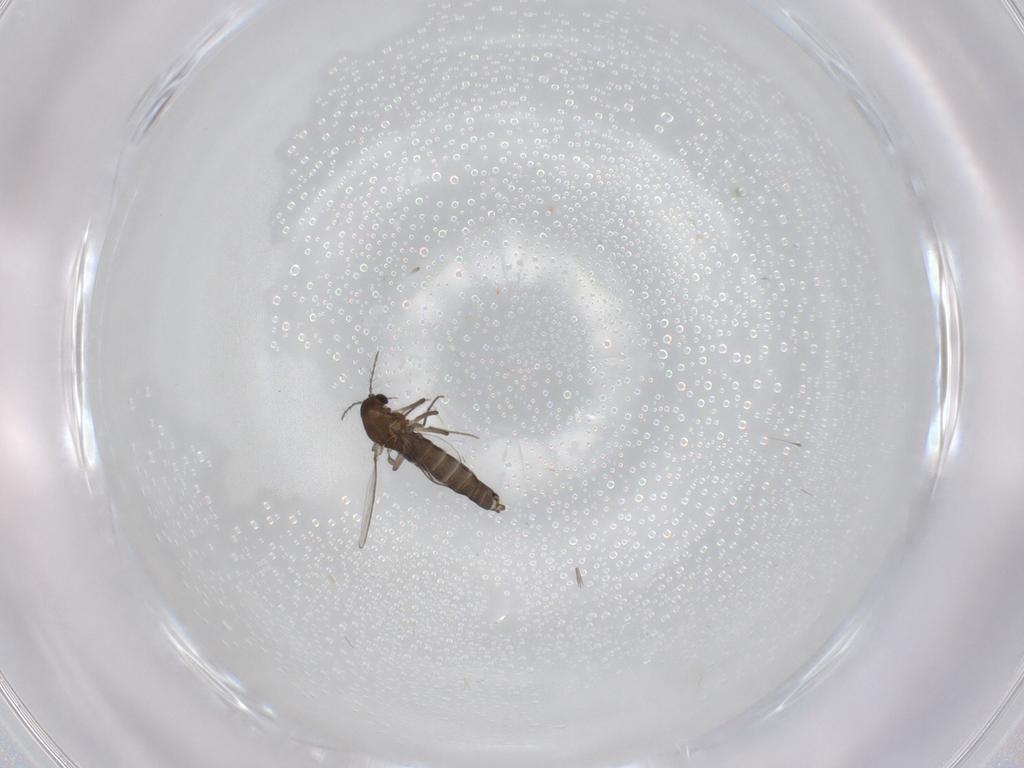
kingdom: Animalia
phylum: Arthropoda
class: Insecta
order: Diptera
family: Chironomidae
